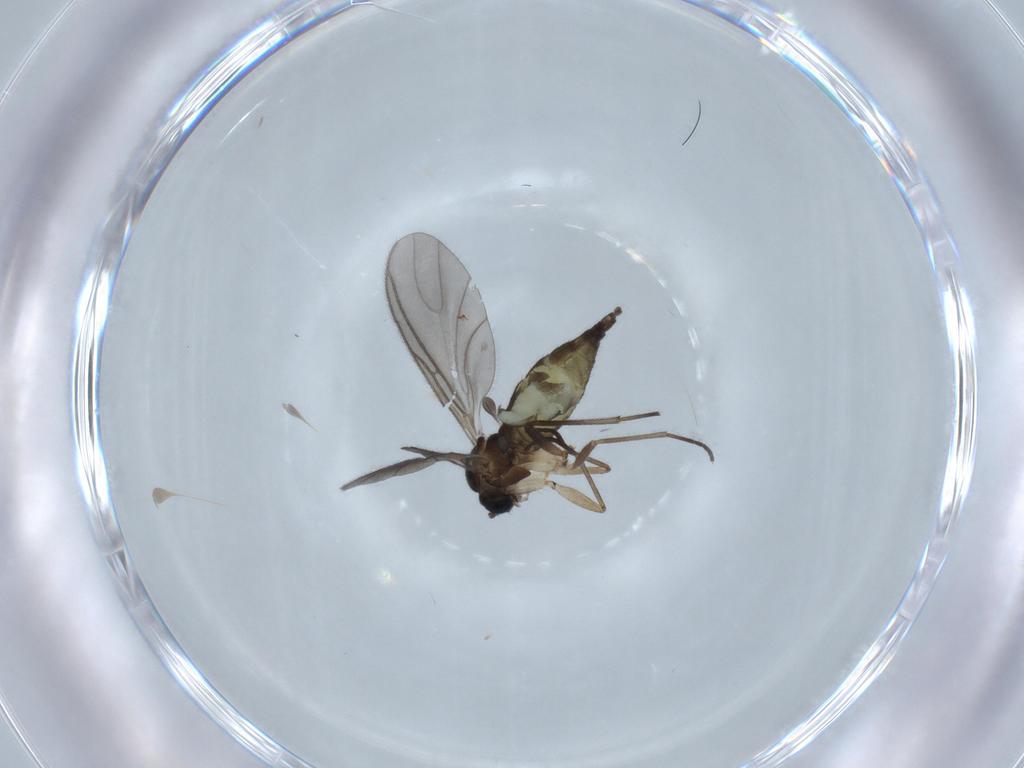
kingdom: Animalia
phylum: Arthropoda
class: Insecta
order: Diptera
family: Sciaridae
